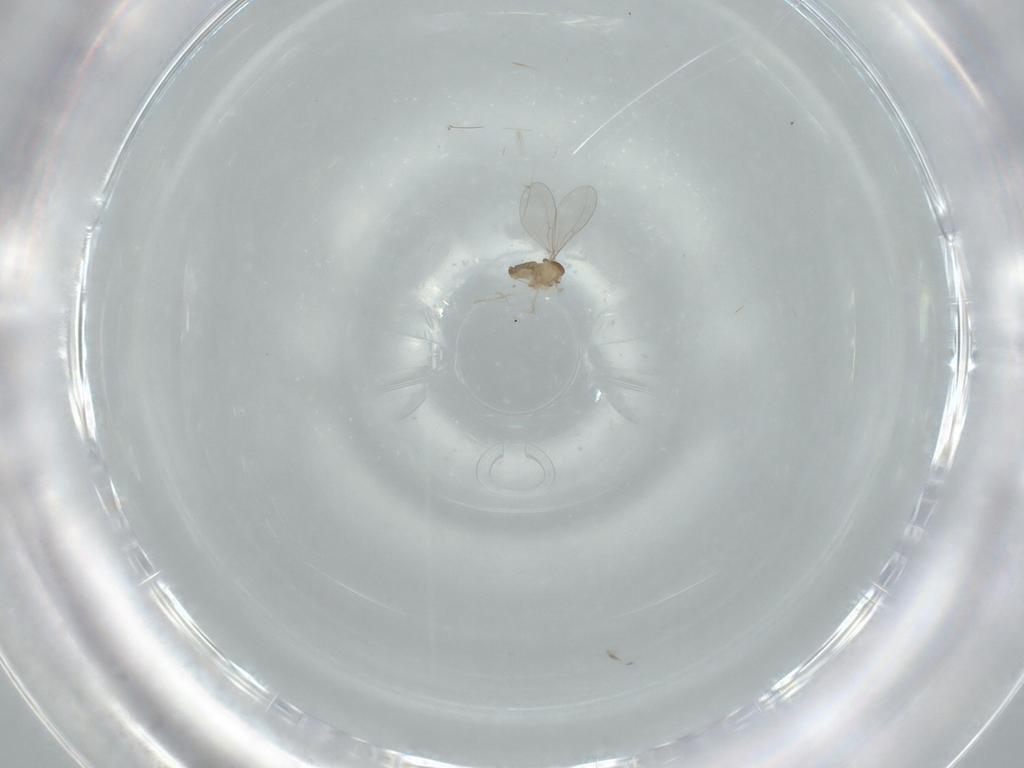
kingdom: Animalia
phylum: Arthropoda
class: Insecta
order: Diptera
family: Cecidomyiidae
